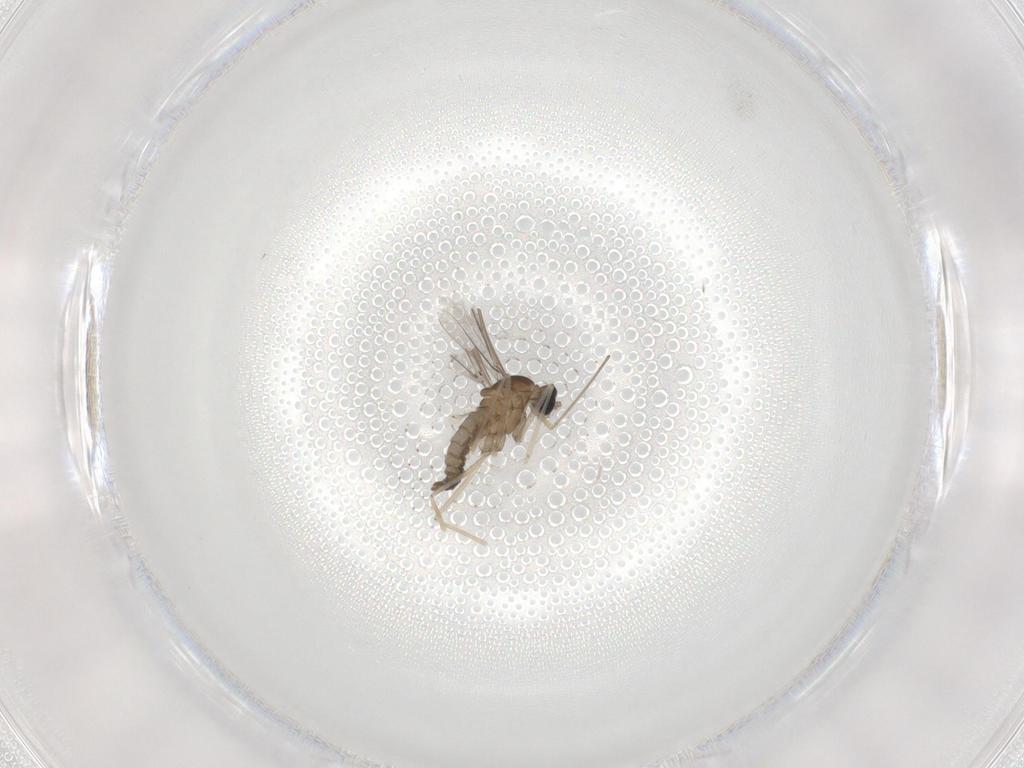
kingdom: Animalia
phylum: Arthropoda
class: Insecta
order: Diptera
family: Cecidomyiidae
